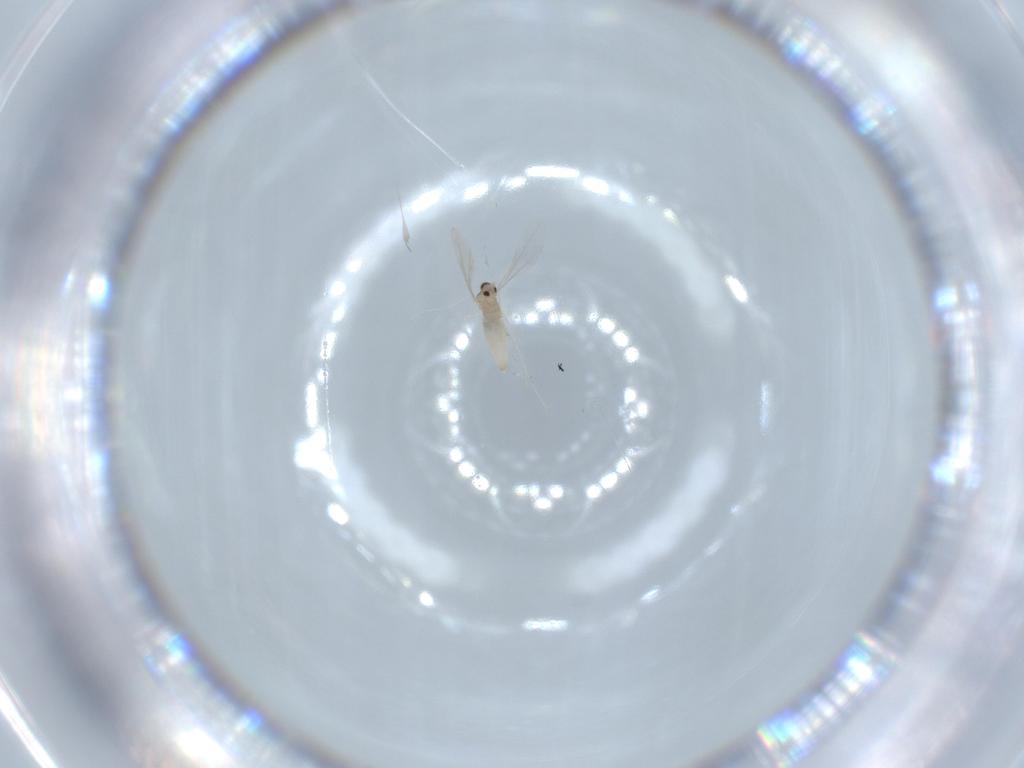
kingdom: Animalia
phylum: Arthropoda
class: Insecta
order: Diptera
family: Cecidomyiidae
